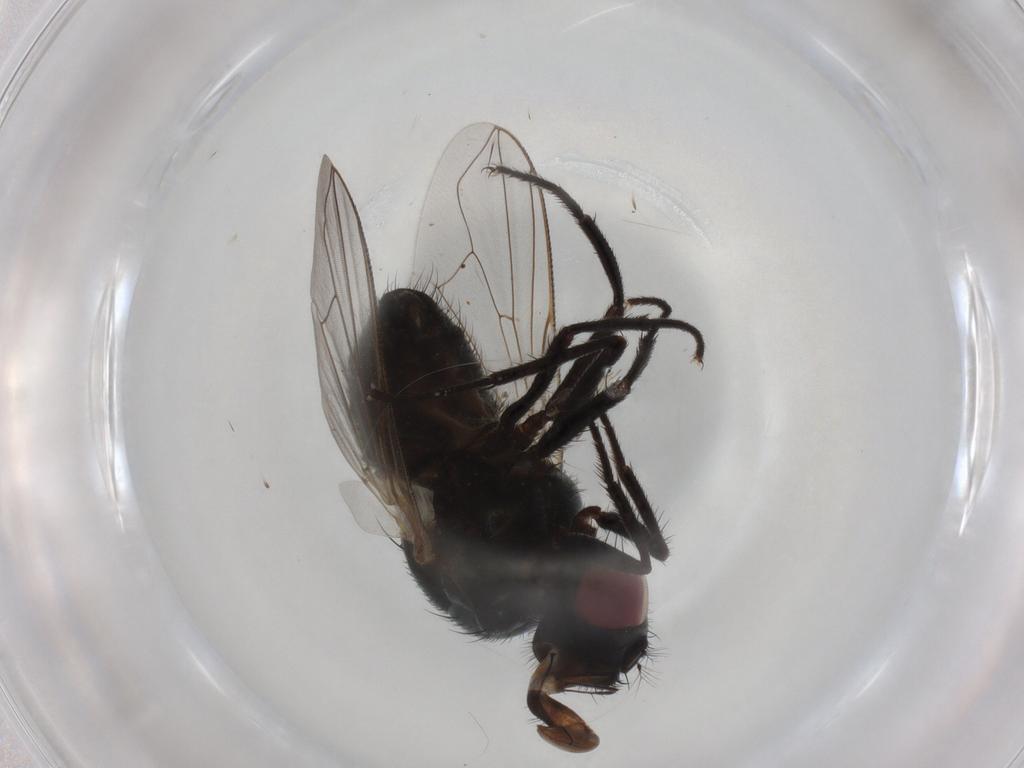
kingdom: Animalia
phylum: Arthropoda
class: Insecta
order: Diptera
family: Muscidae
